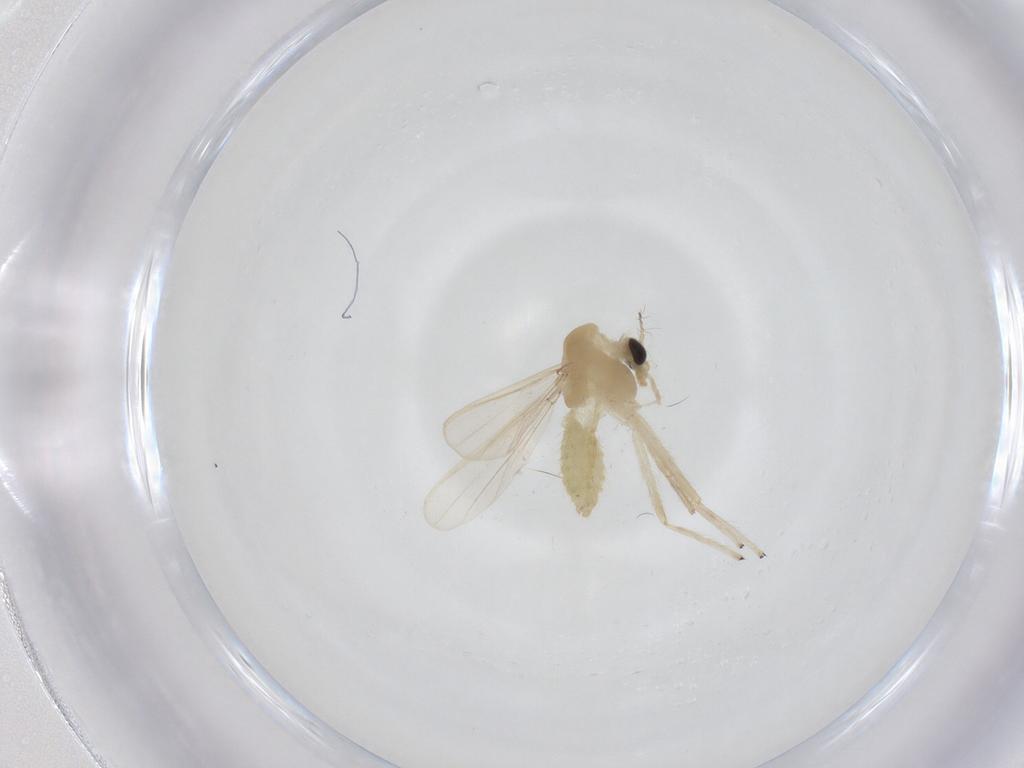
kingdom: Animalia
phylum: Arthropoda
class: Insecta
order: Diptera
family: Chironomidae
